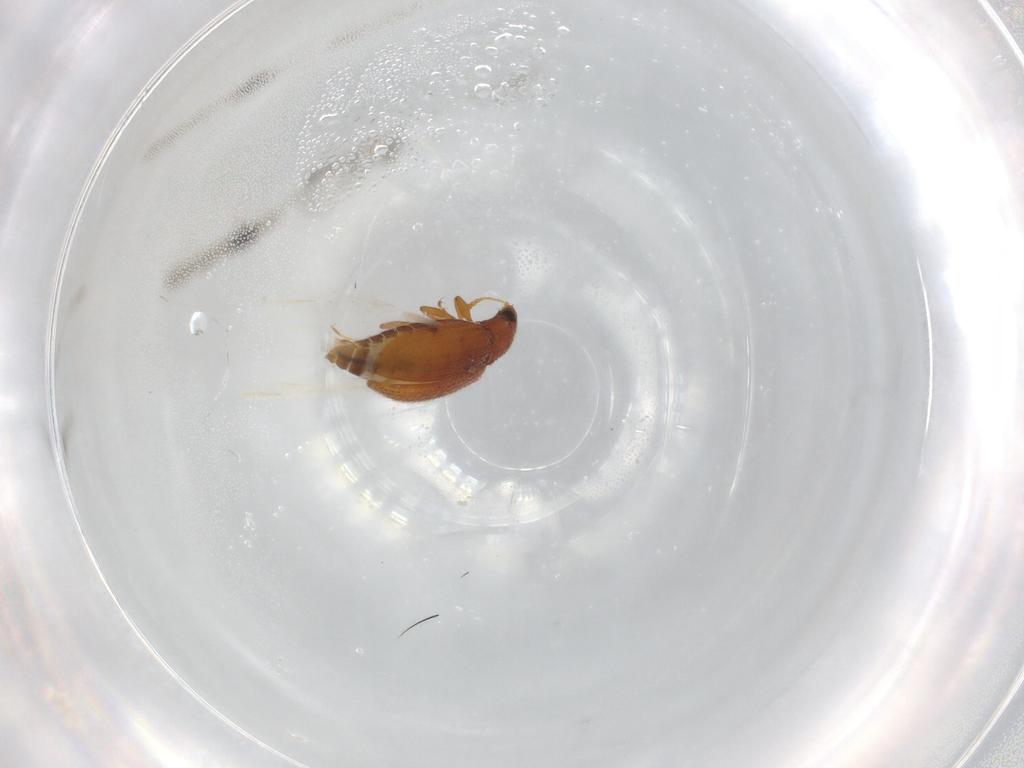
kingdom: Animalia
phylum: Arthropoda
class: Insecta
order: Coleoptera
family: Latridiidae
